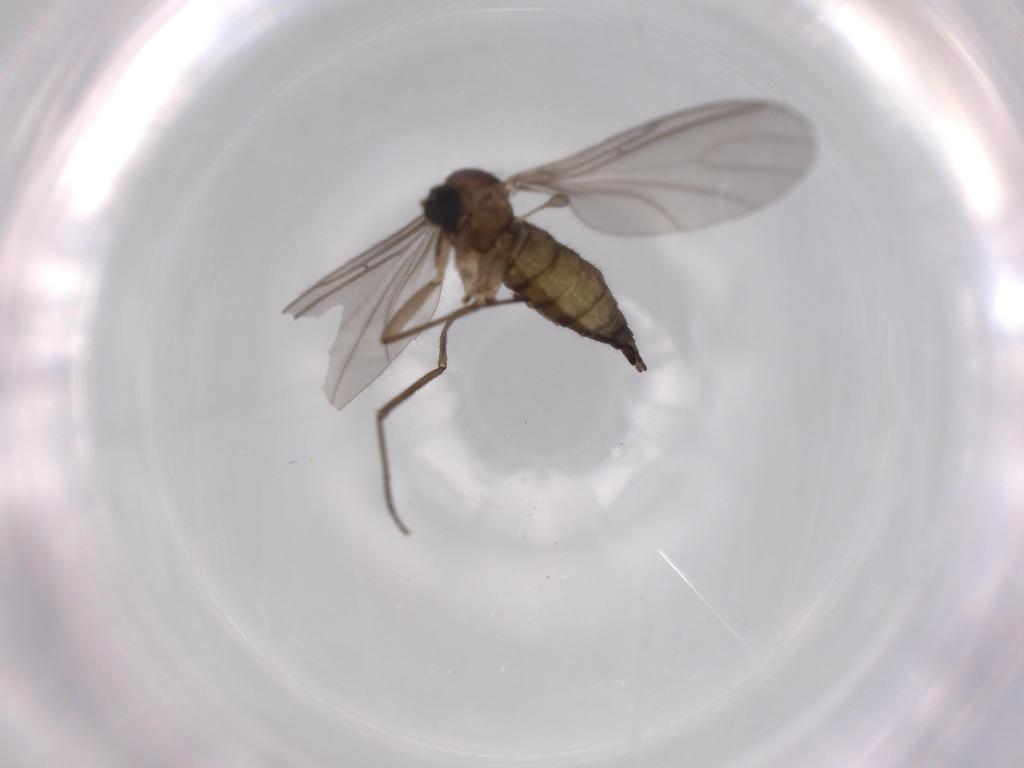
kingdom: Animalia
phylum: Arthropoda
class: Insecta
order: Diptera
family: Sciaridae
